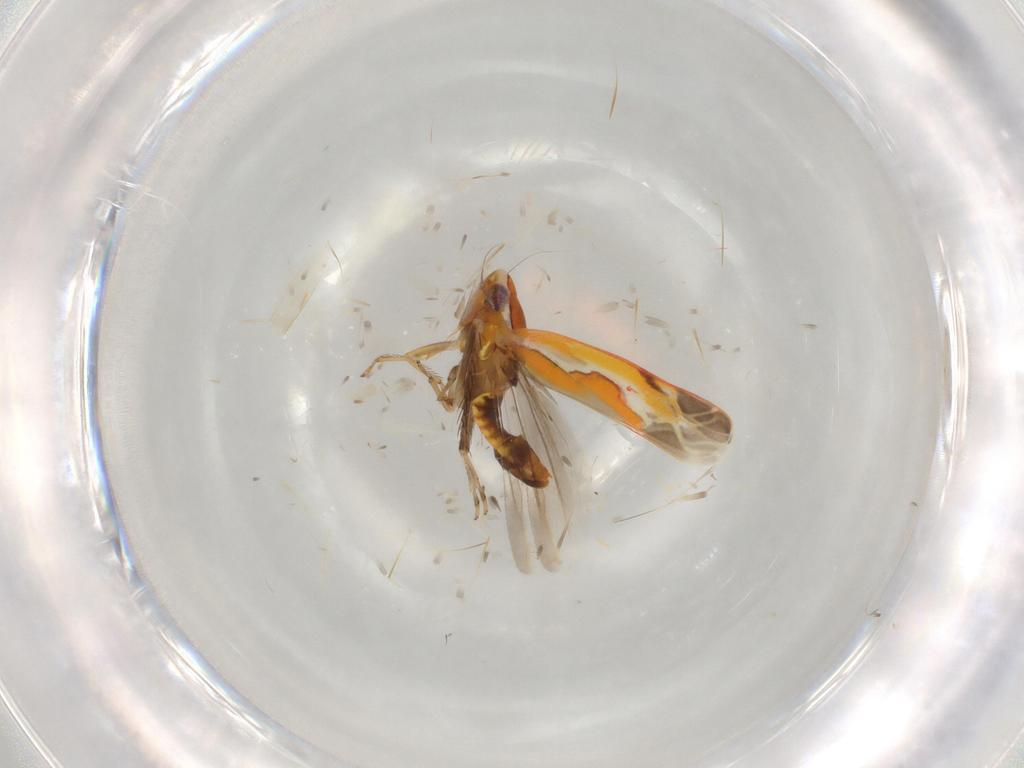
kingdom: Animalia
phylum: Arthropoda
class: Insecta
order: Hemiptera
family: Cicadellidae
